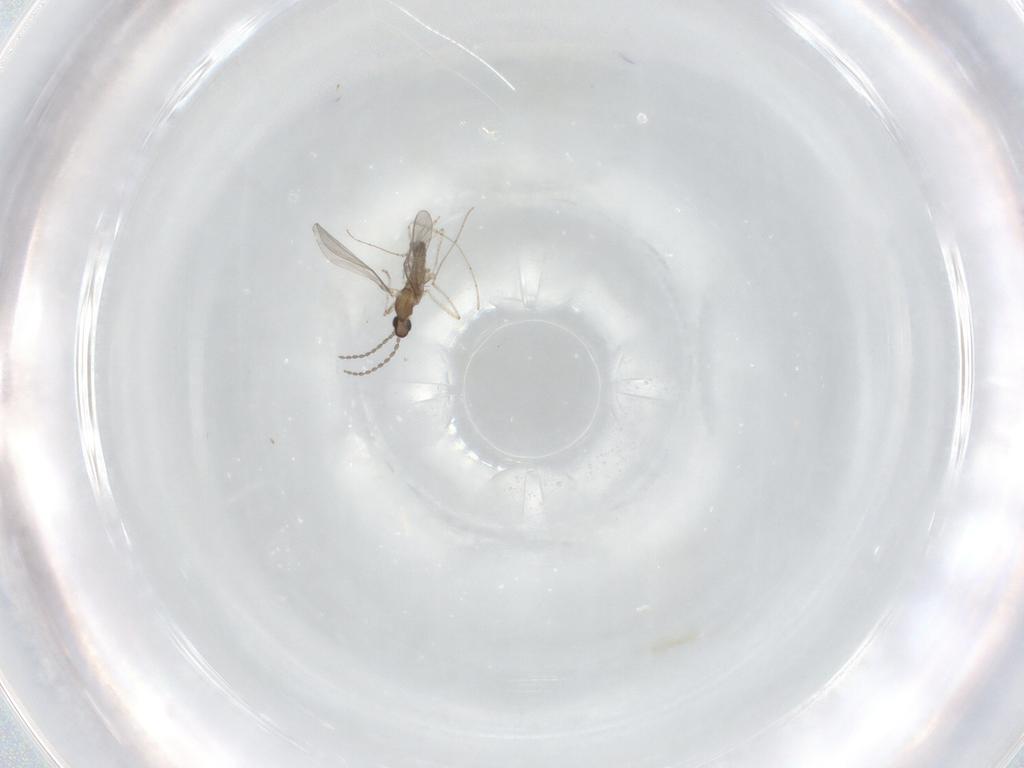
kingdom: Animalia
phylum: Arthropoda
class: Insecta
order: Diptera
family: Cecidomyiidae
